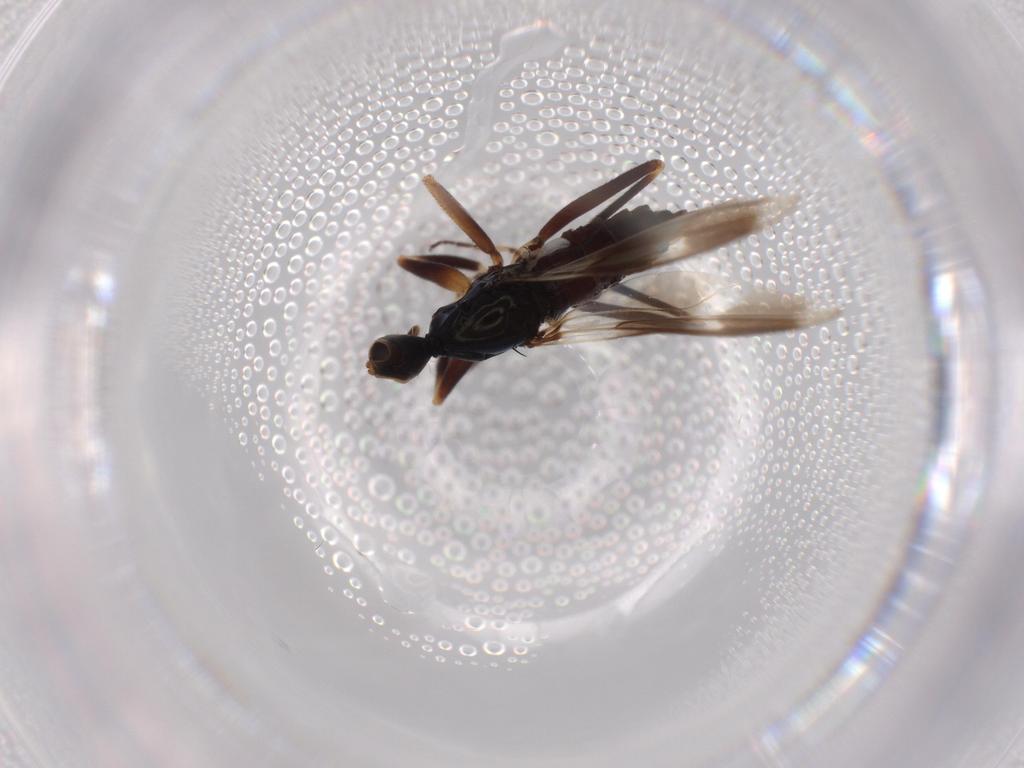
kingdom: Animalia
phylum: Arthropoda
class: Insecta
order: Diptera
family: Hybotidae
